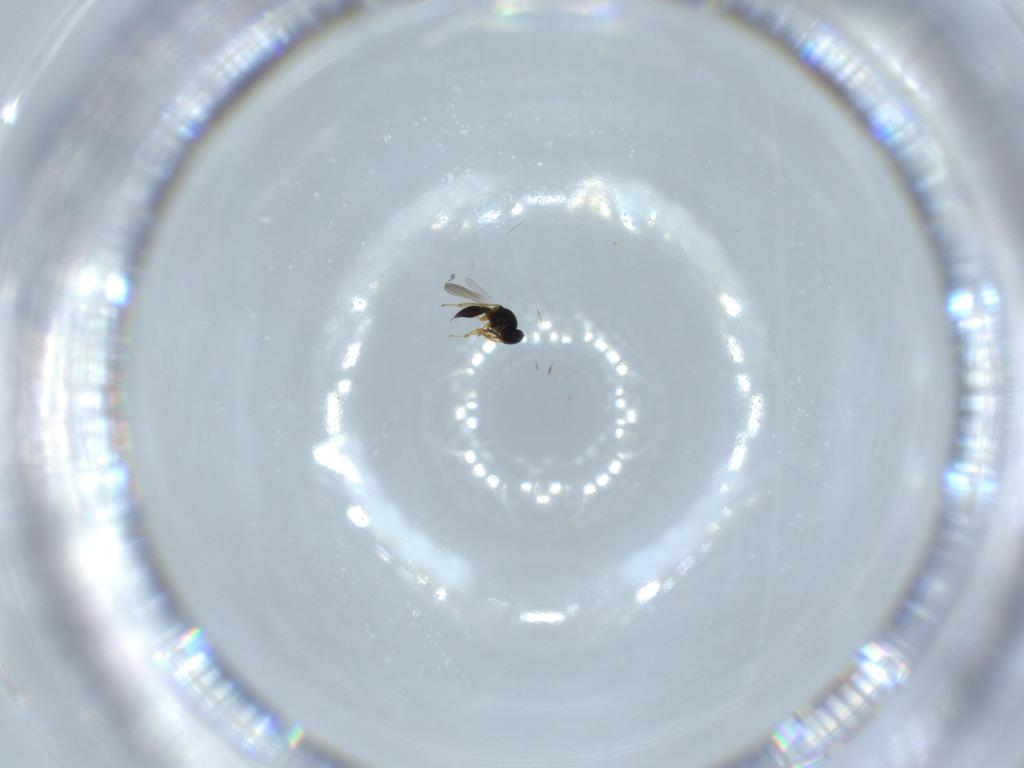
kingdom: Animalia
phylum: Arthropoda
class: Insecta
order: Hymenoptera
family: Platygastridae
